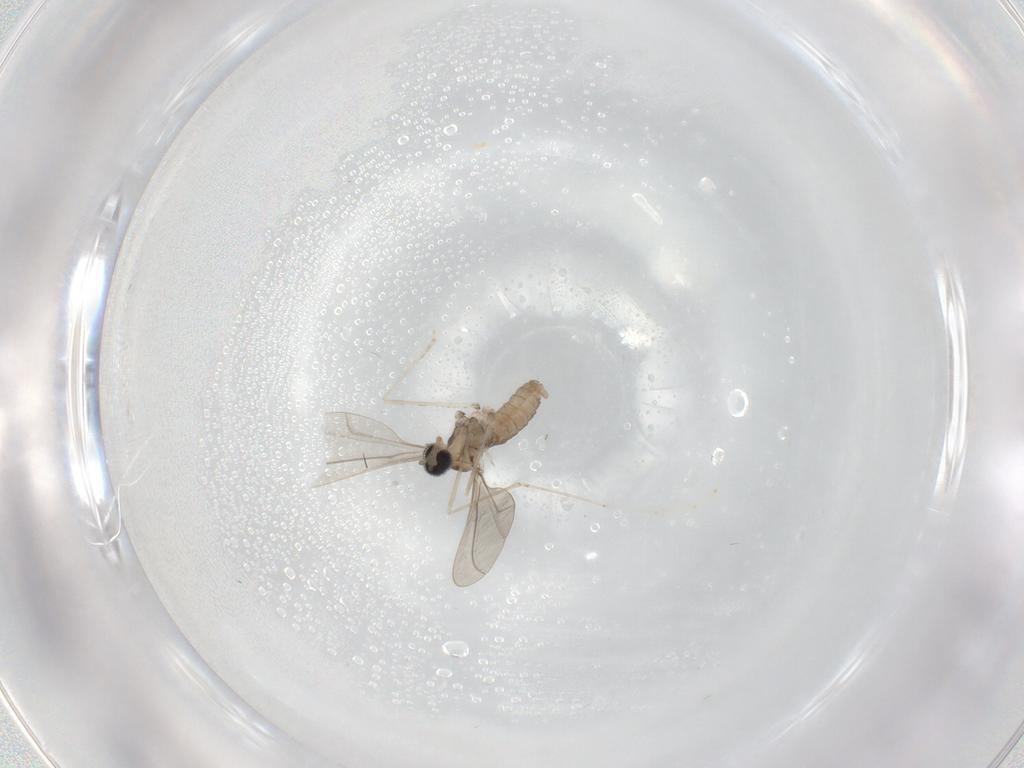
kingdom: Animalia
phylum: Arthropoda
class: Insecta
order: Diptera
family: Cecidomyiidae
